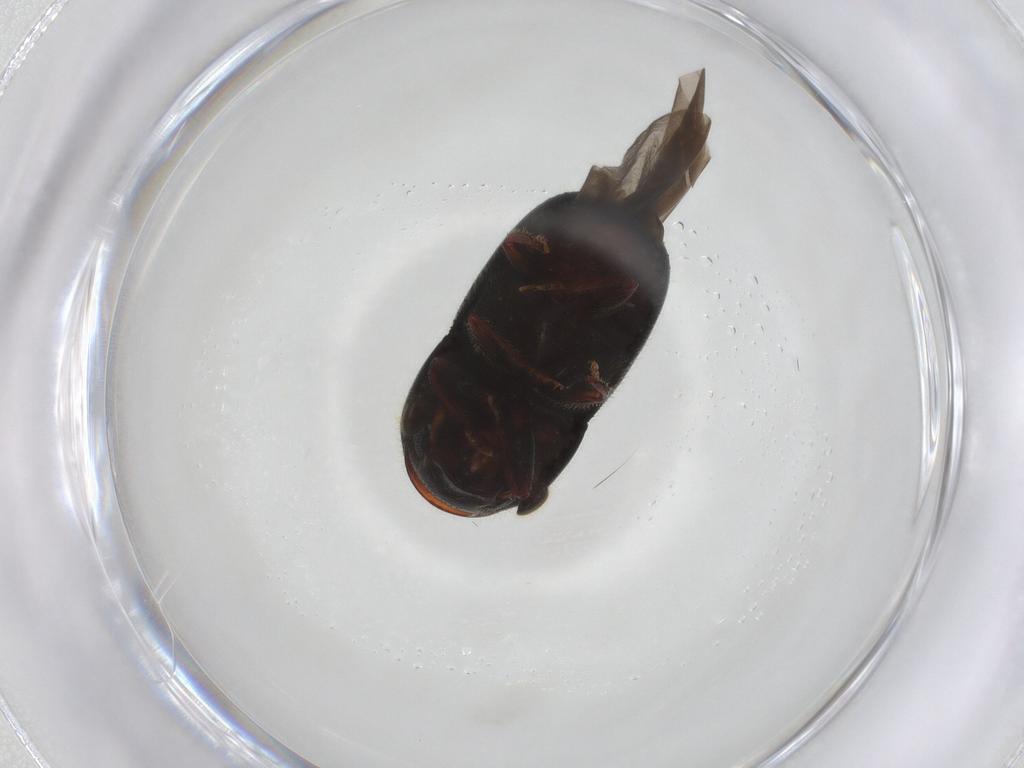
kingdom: Animalia
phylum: Arthropoda
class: Insecta
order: Coleoptera
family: Curculionidae
